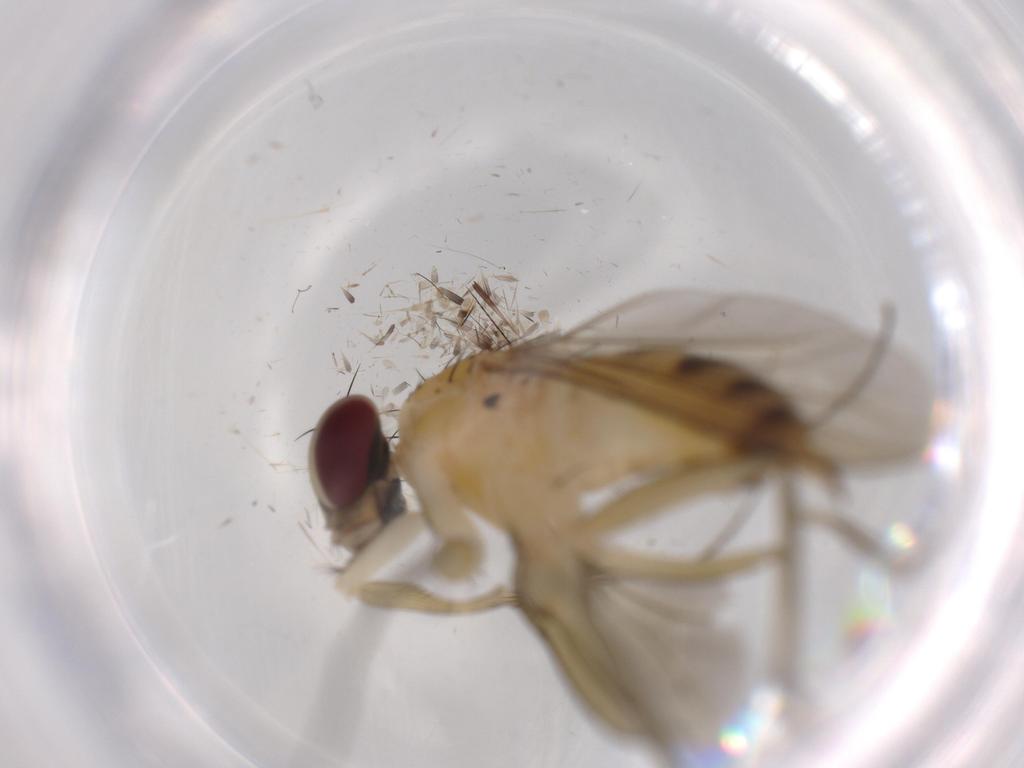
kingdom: Animalia
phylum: Arthropoda
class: Insecta
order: Diptera
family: Dolichopodidae
